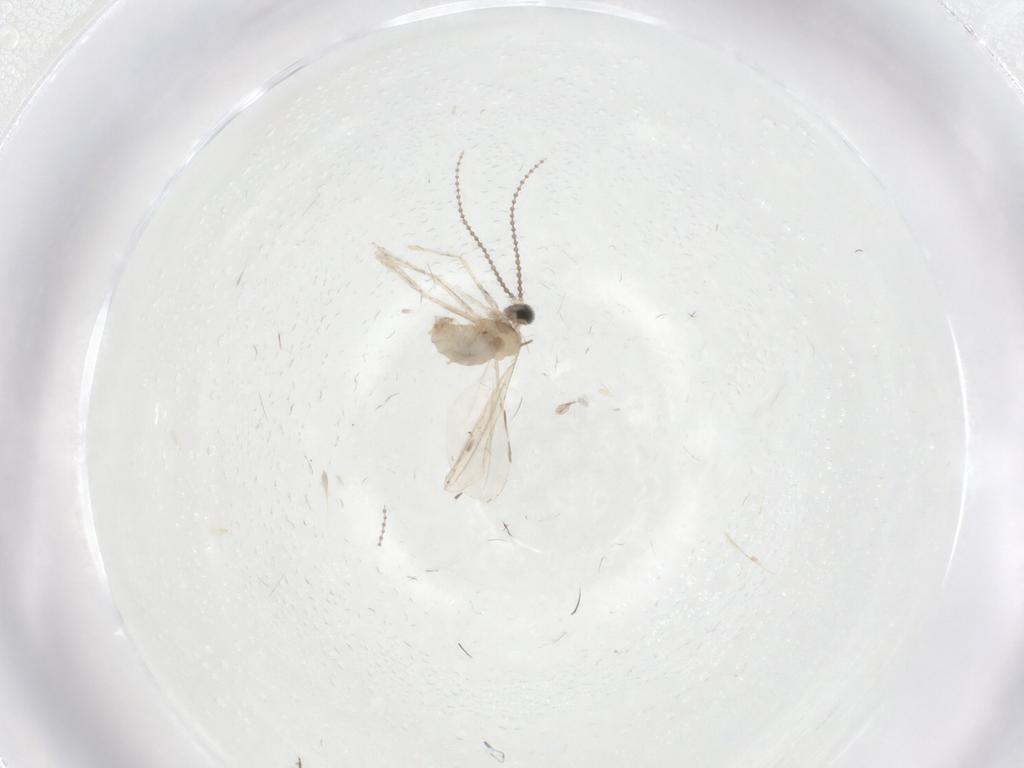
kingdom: Animalia
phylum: Arthropoda
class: Insecta
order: Diptera
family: Limoniidae
